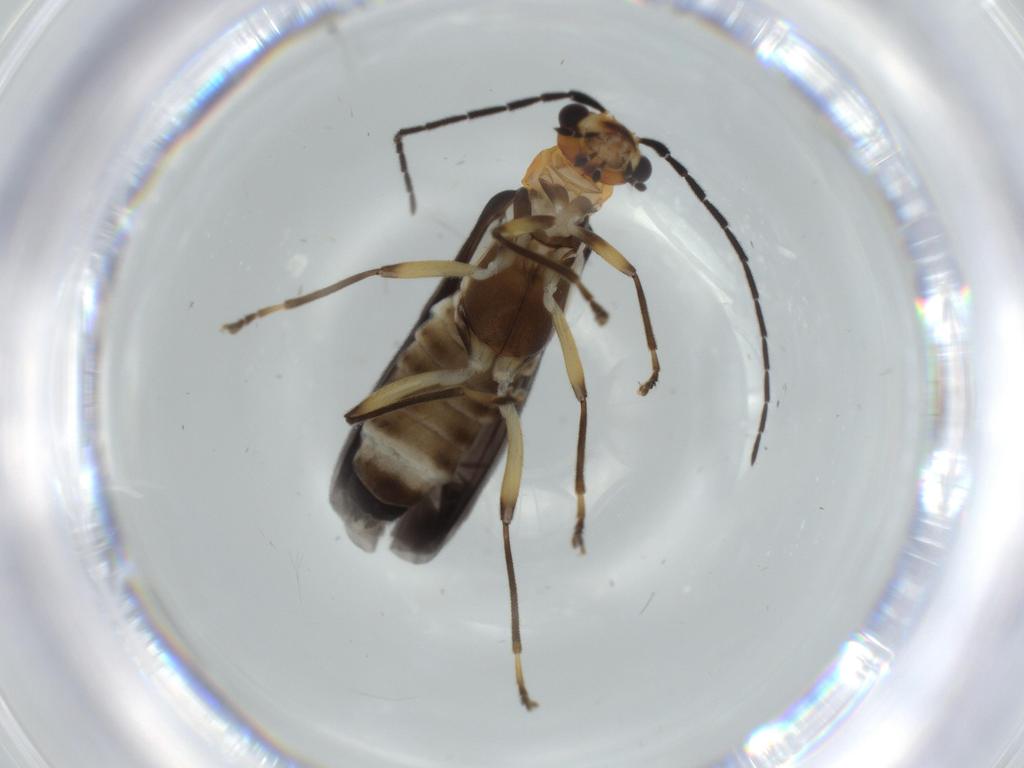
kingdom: Animalia
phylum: Arthropoda
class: Insecta
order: Coleoptera
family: Cantharidae
